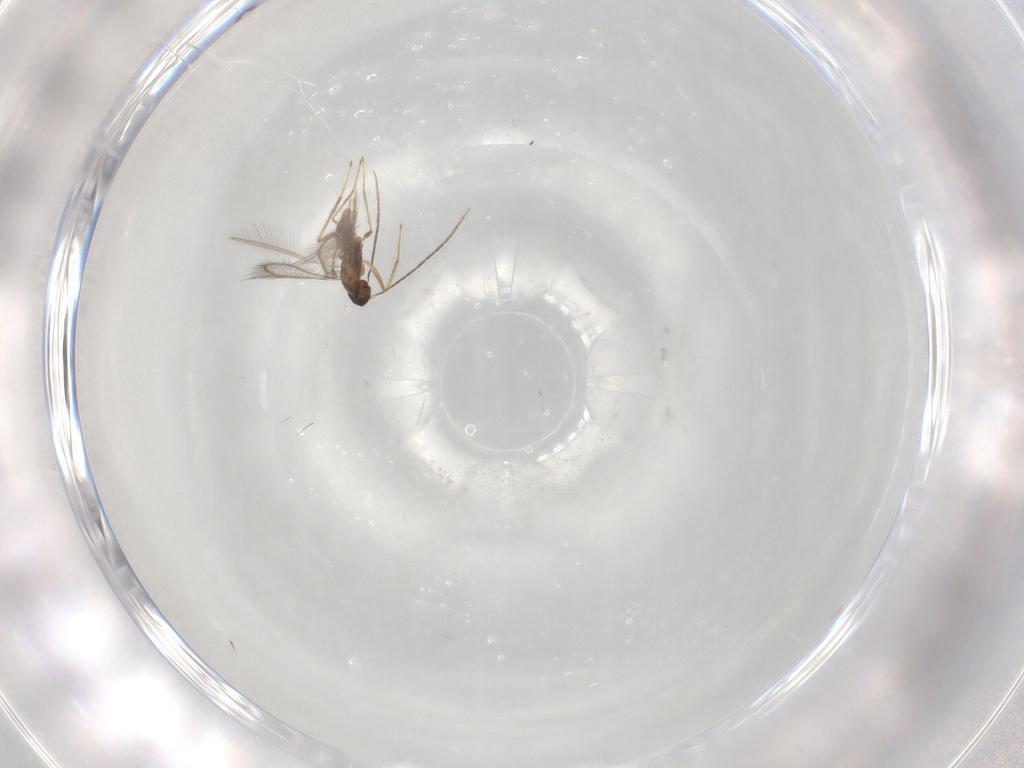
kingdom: Animalia
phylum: Arthropoda
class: Insecta
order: Hymenoptera
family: Mymaridae
